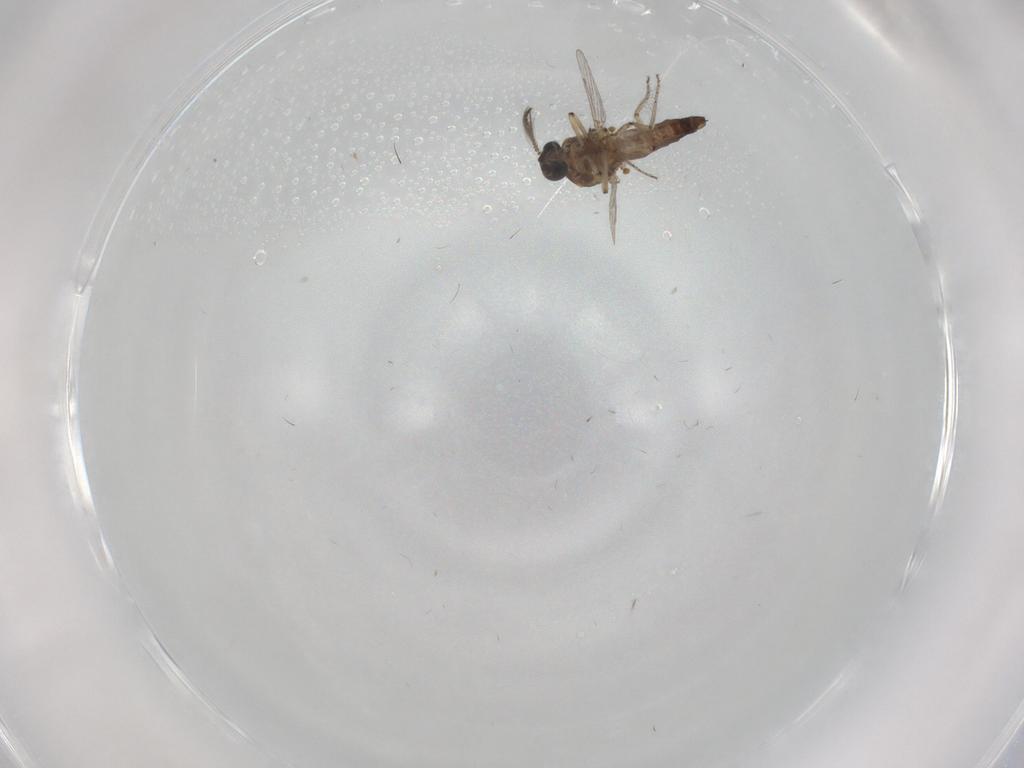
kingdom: Animalia
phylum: Arthropoda
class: Insecta
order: Diptera
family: Ceratopogonidae
